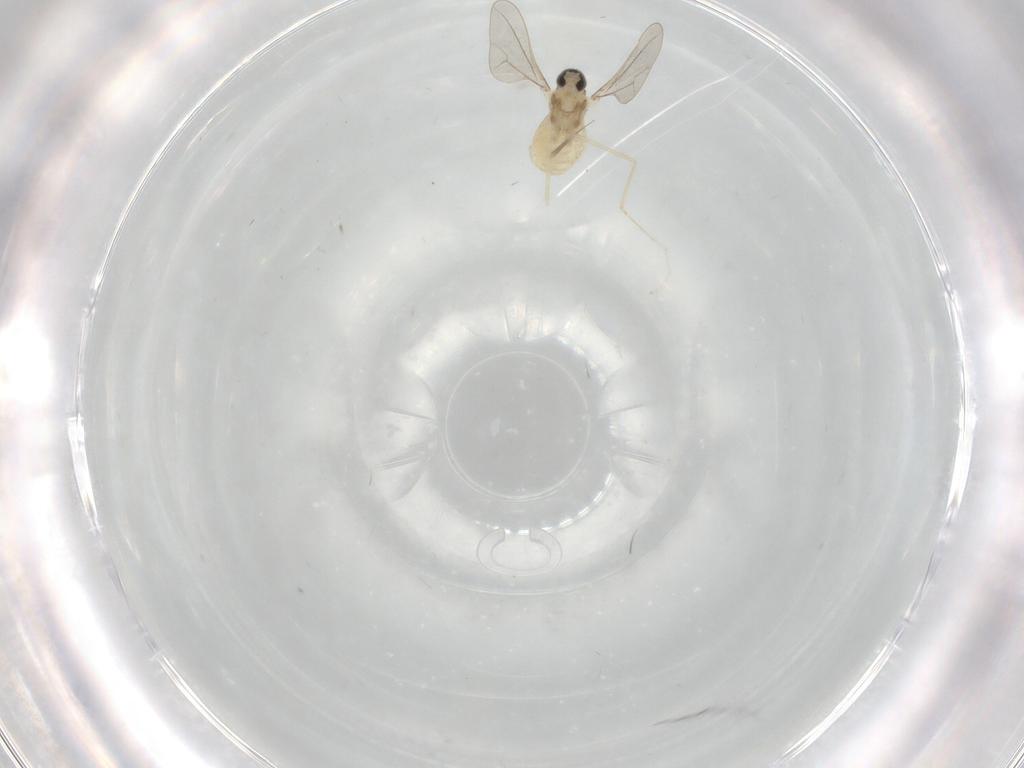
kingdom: Animalia
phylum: Arthropoda
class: Insecta
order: Diptera
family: Cecidomyiidae
